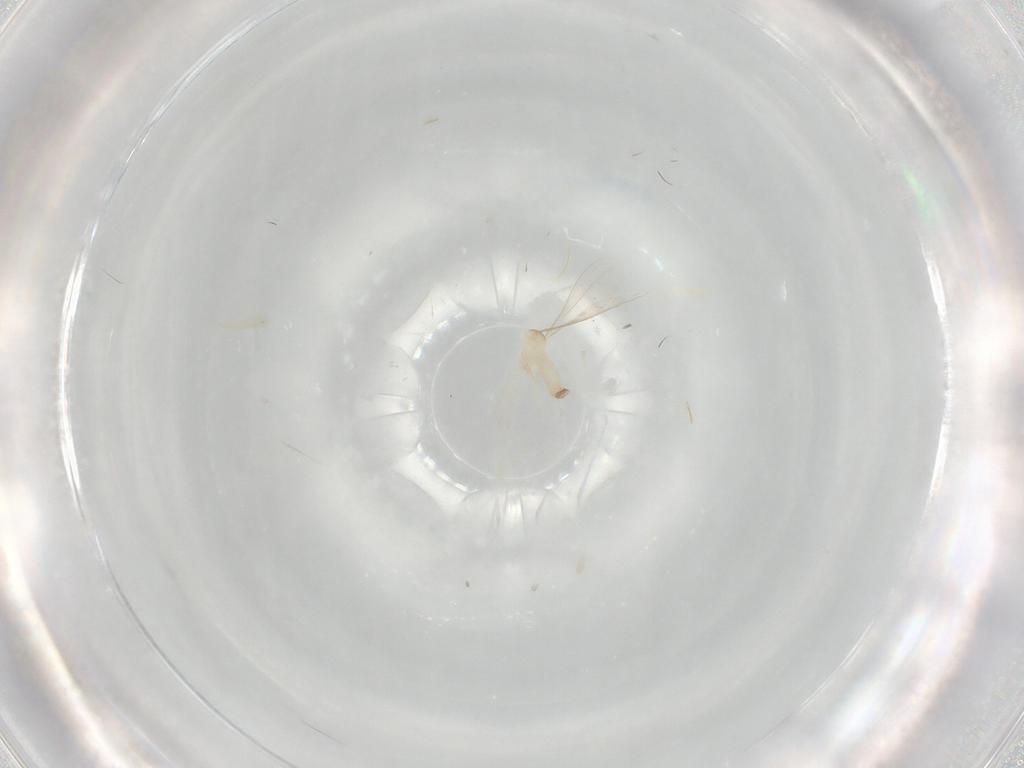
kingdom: Animalia
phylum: Arthropoda
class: Insecta
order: Diptera
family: Cecidomyiidae
